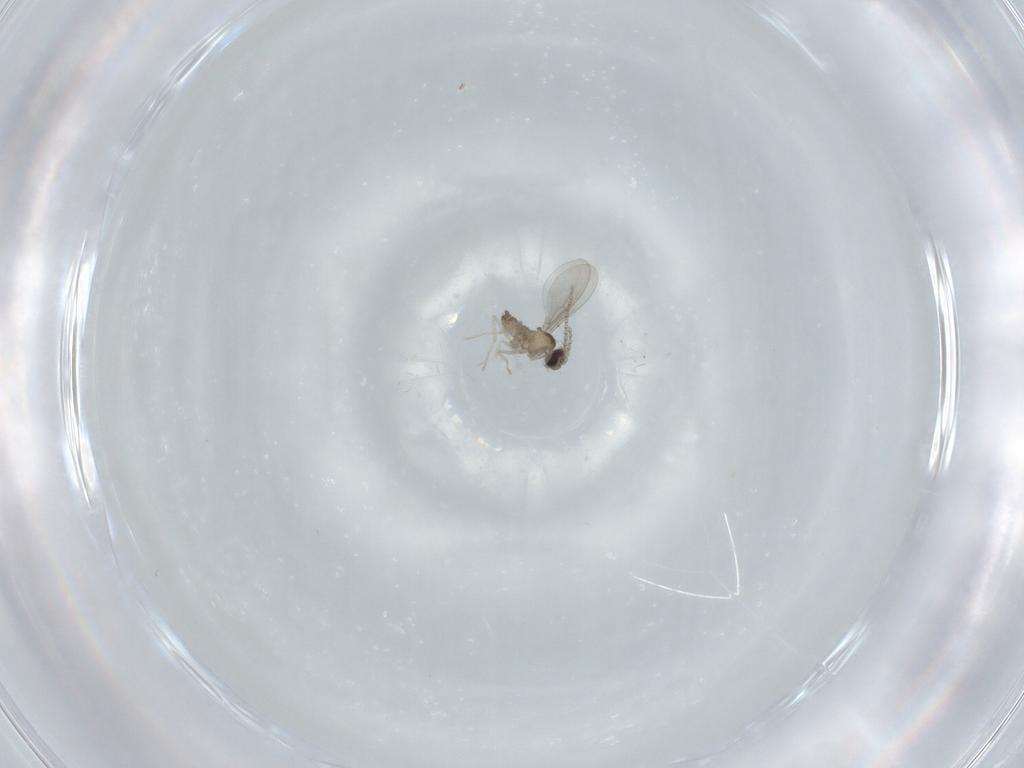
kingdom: Animalia
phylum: Arthropoda
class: Insecta
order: Diptera
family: Cecidomyiidae
